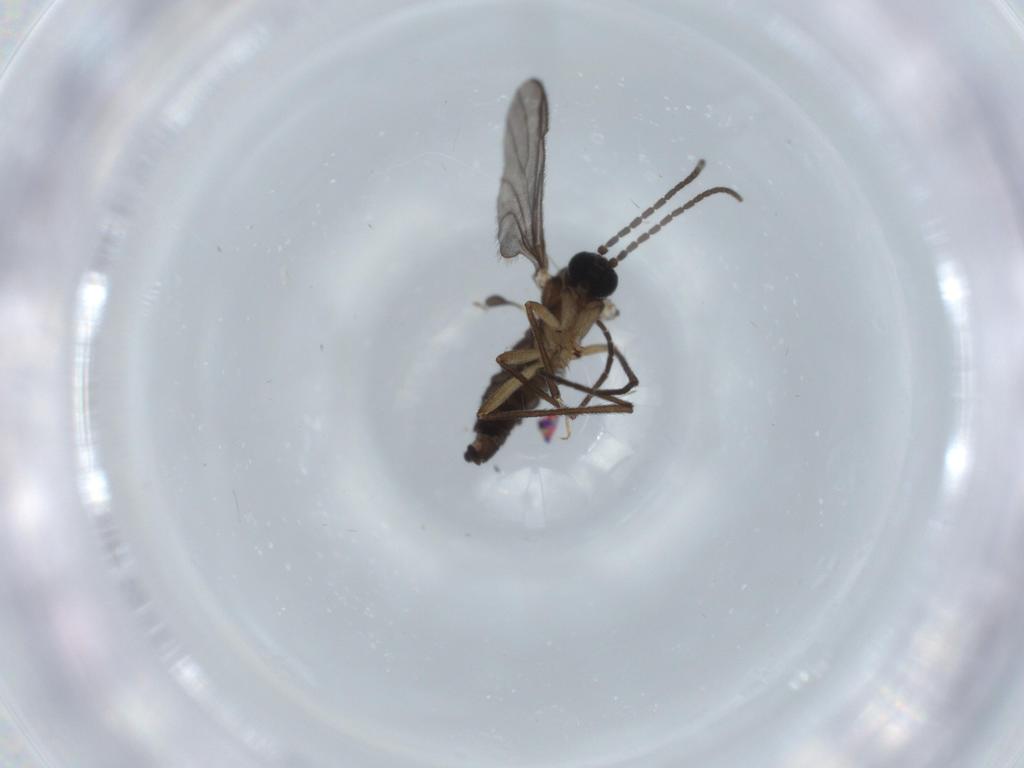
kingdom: Animalia
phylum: Arthropoda
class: Insecta
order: Diptera
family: Sciaridae
